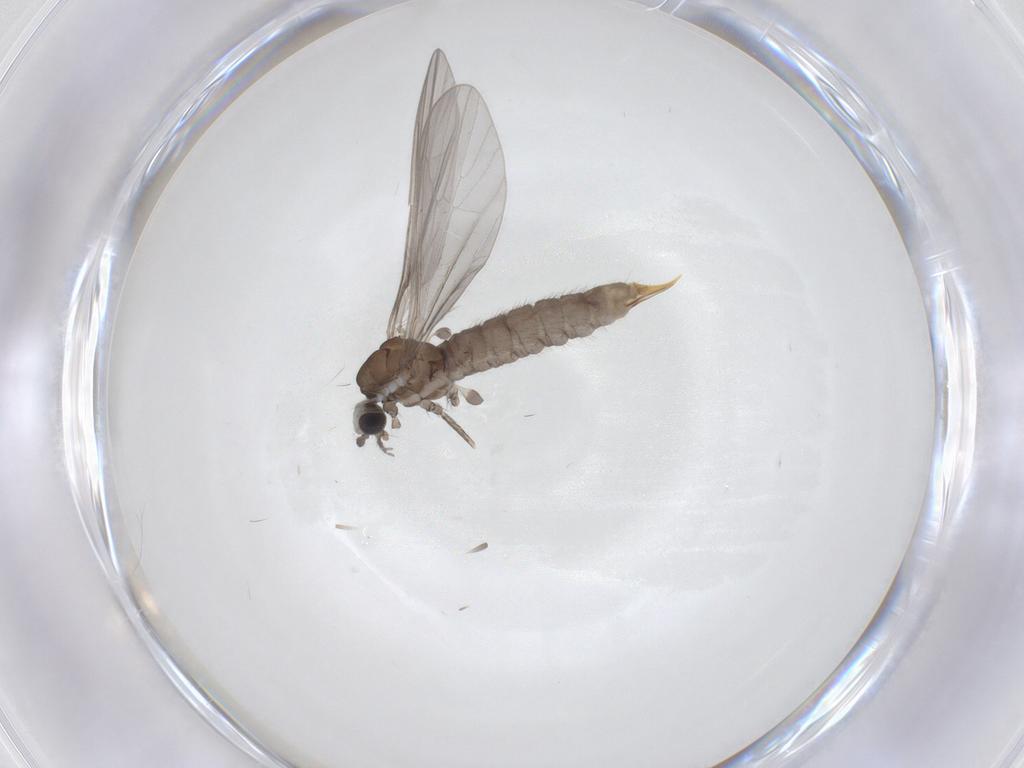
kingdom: Animalia
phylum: Arthropoda
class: Insecta
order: Diptera
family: Limoniidae
